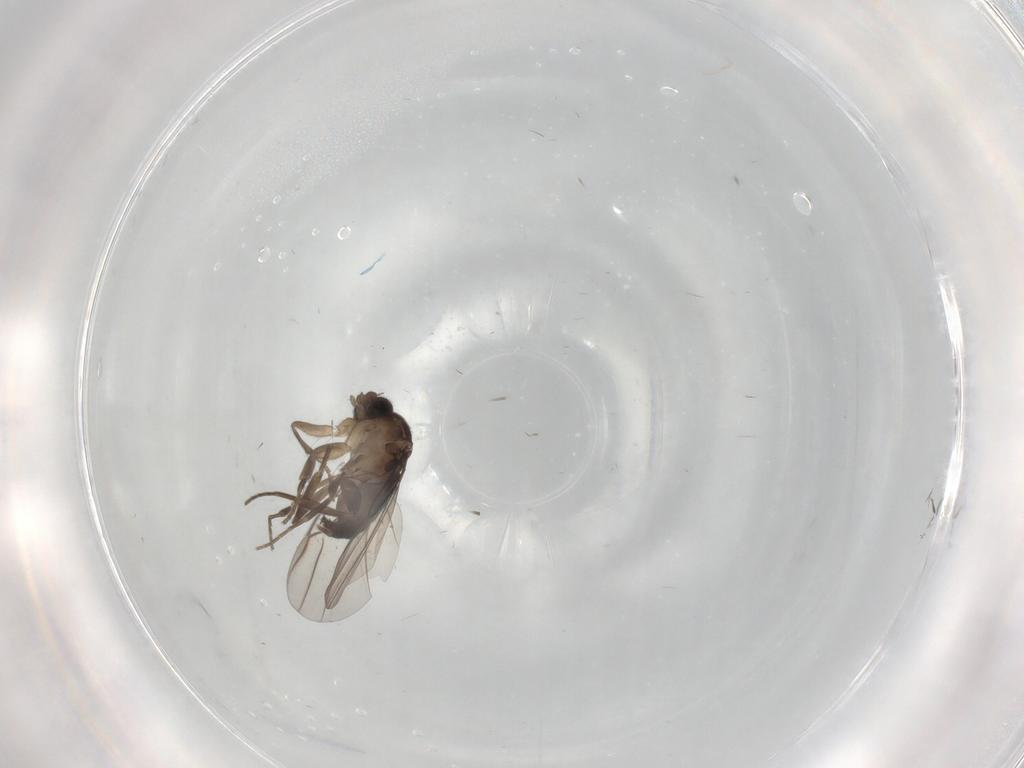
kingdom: Animalia
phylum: Arthropoda
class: Insecta
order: Diptera
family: Phoridae
